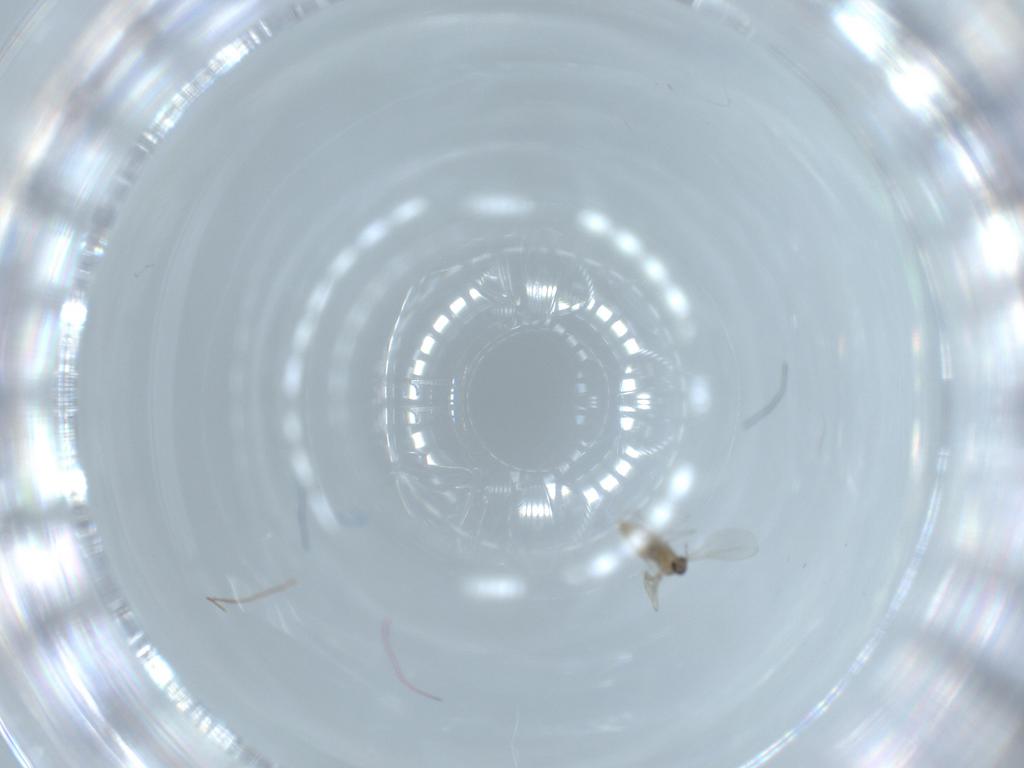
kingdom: Animalia
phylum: Arthropoda
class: Insecta
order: Diptera
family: Cecidomyiidae
